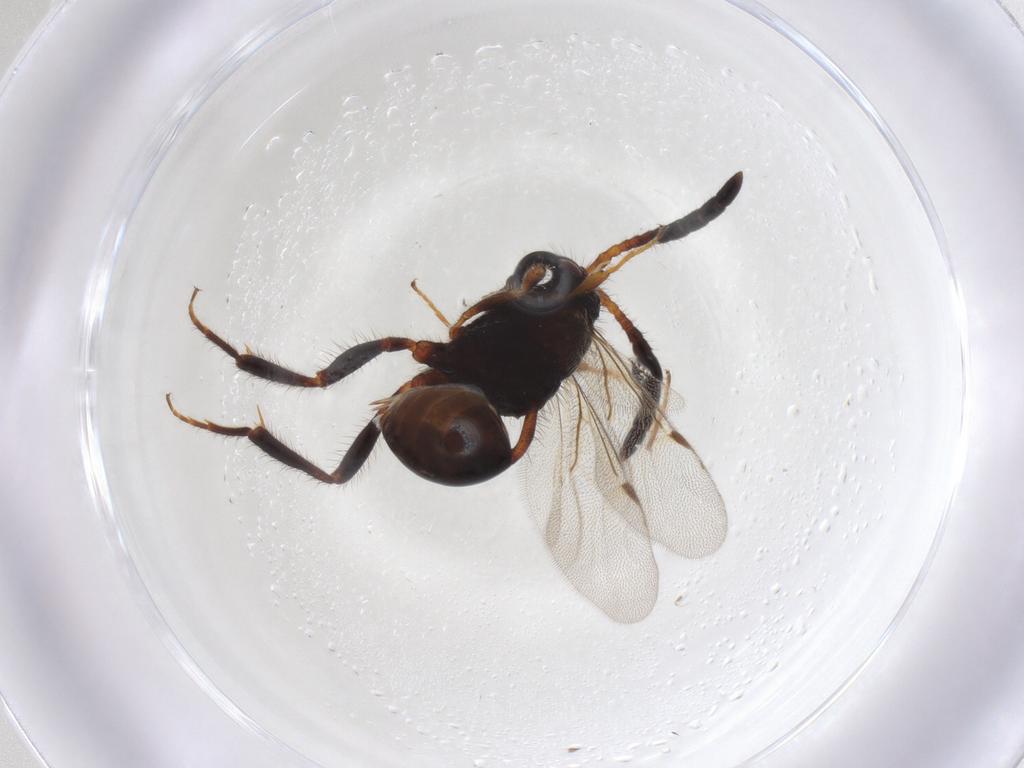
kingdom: Animalia
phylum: Arthropoda
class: Insecta
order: Hymenoptera
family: Evaniidae
